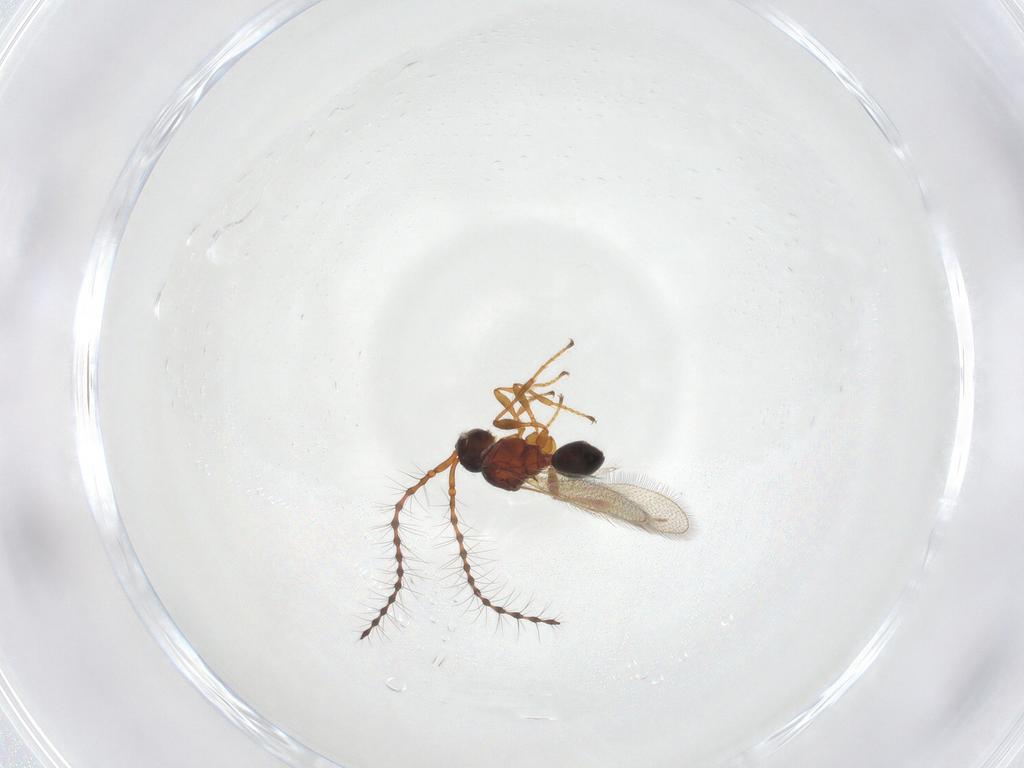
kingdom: Animalia
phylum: Arthropoda
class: Insecta
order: Hymenoptera
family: Diapriidae
